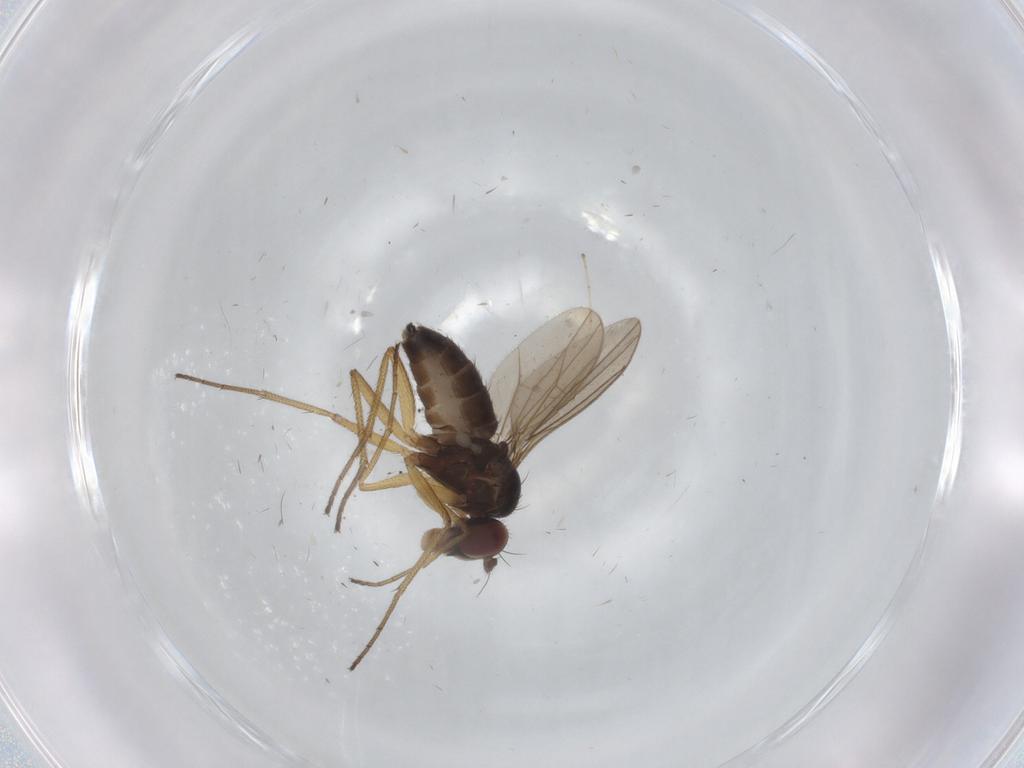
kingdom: Animalia
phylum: Arthropoda
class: Insecta
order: Diptera
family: Dolichopodidae
